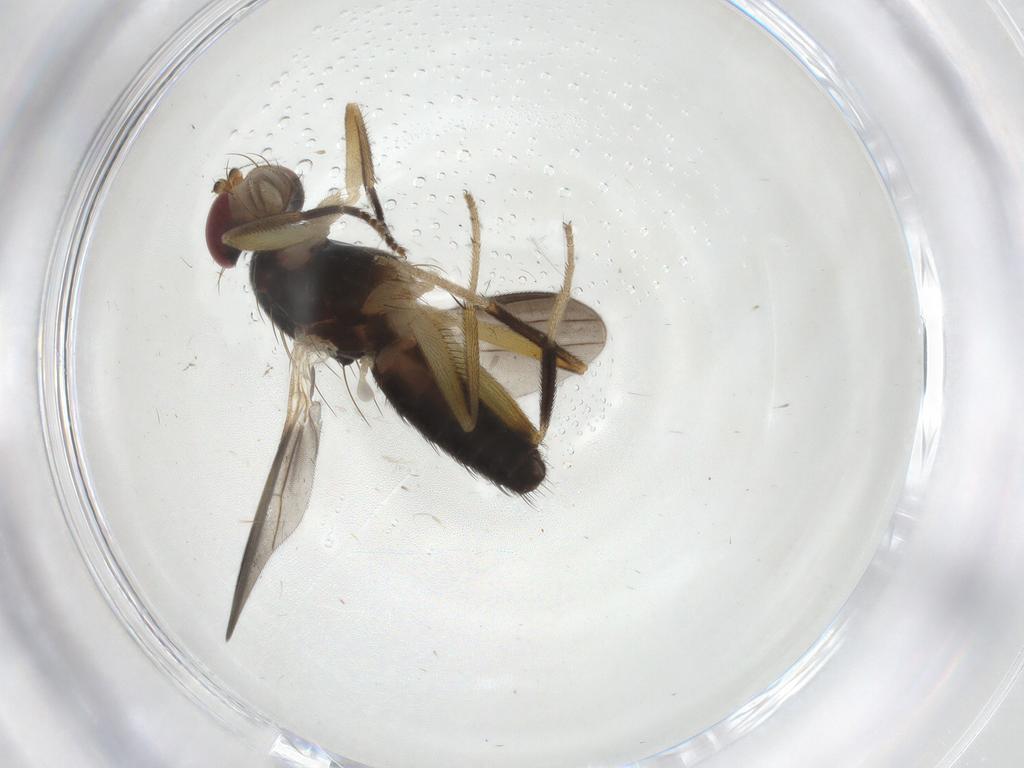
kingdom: Animalia
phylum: Arthropoda
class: Insecta
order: Diptera
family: Clusiidae
